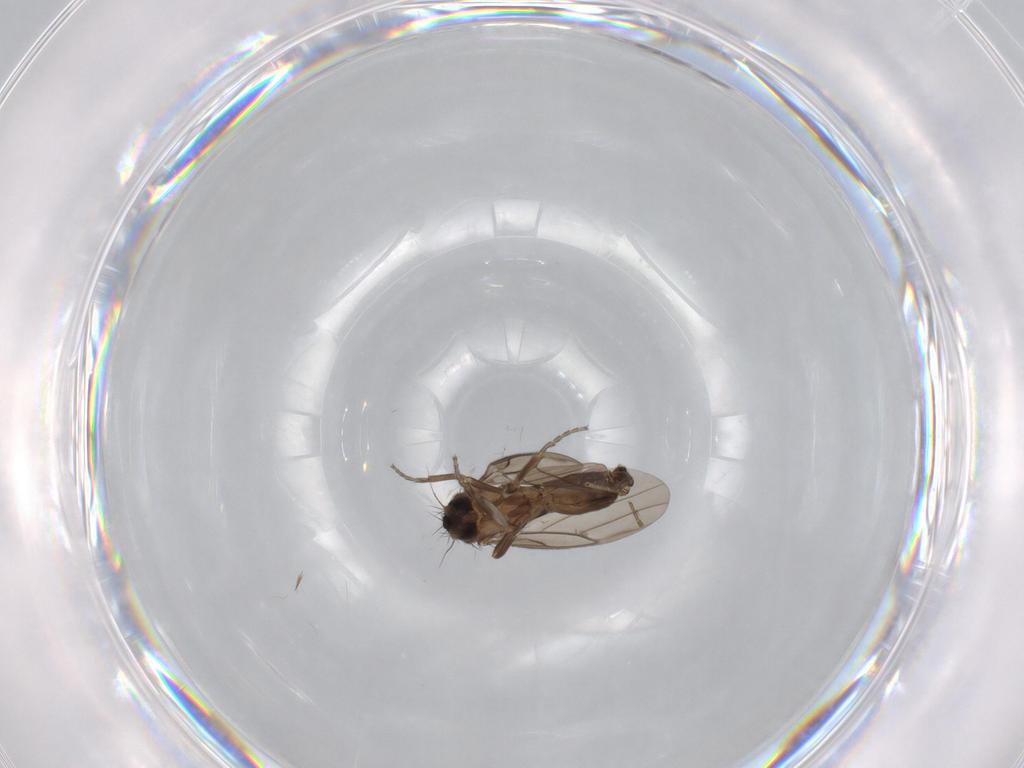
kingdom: Animalia
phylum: Arthropoda
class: Insecta
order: Diptera
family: Psychodidae
